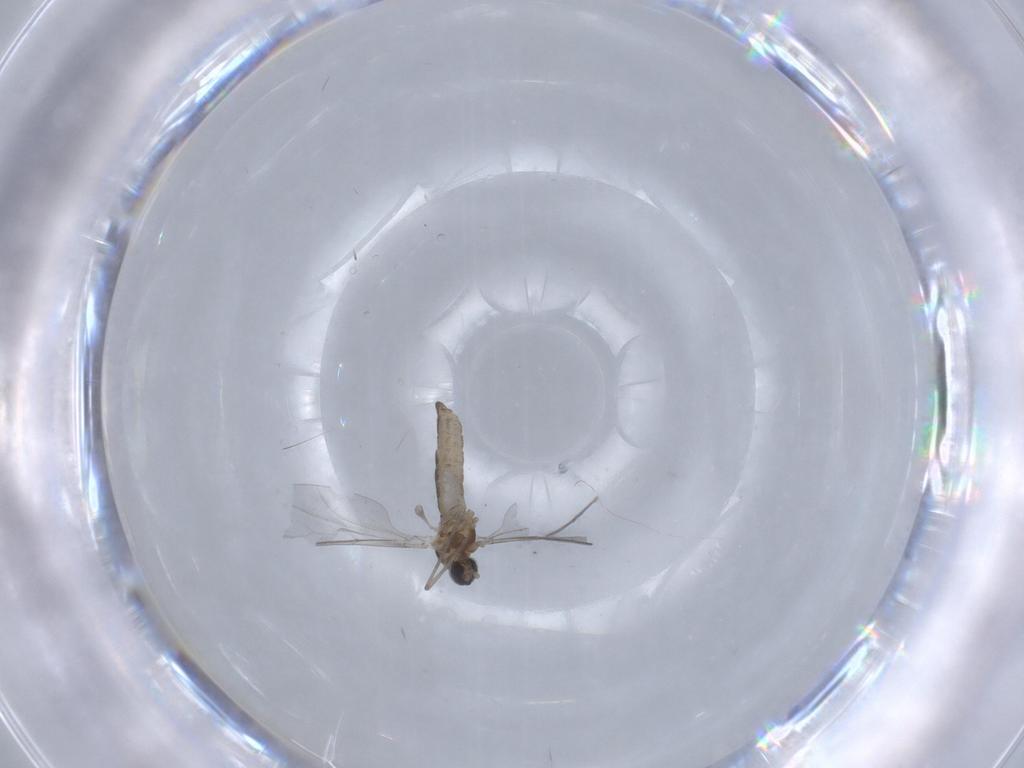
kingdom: Animalia
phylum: Arthropoda
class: Insecta
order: Diptera
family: Cecidomyiidae
